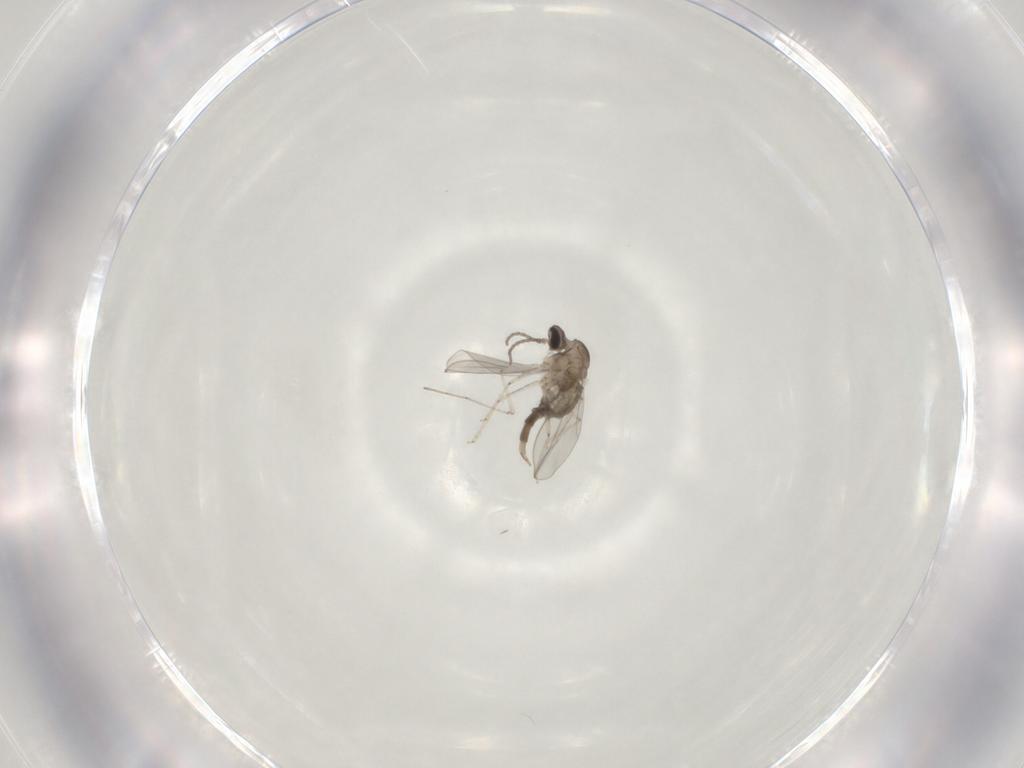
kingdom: Animalia
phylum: Arthropoda
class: Insecta
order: Diptera
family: Cecidomyiidae
